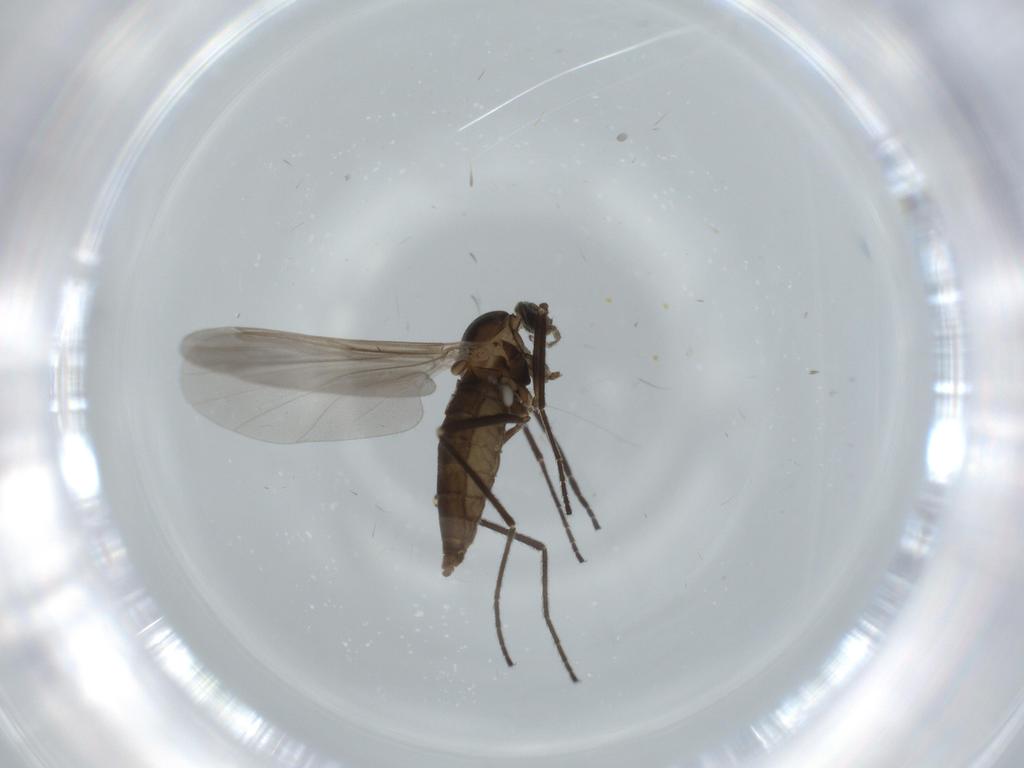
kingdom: Animalia
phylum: Arthropoda
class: Insecta
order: Diptera
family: Cecidomyiidae
